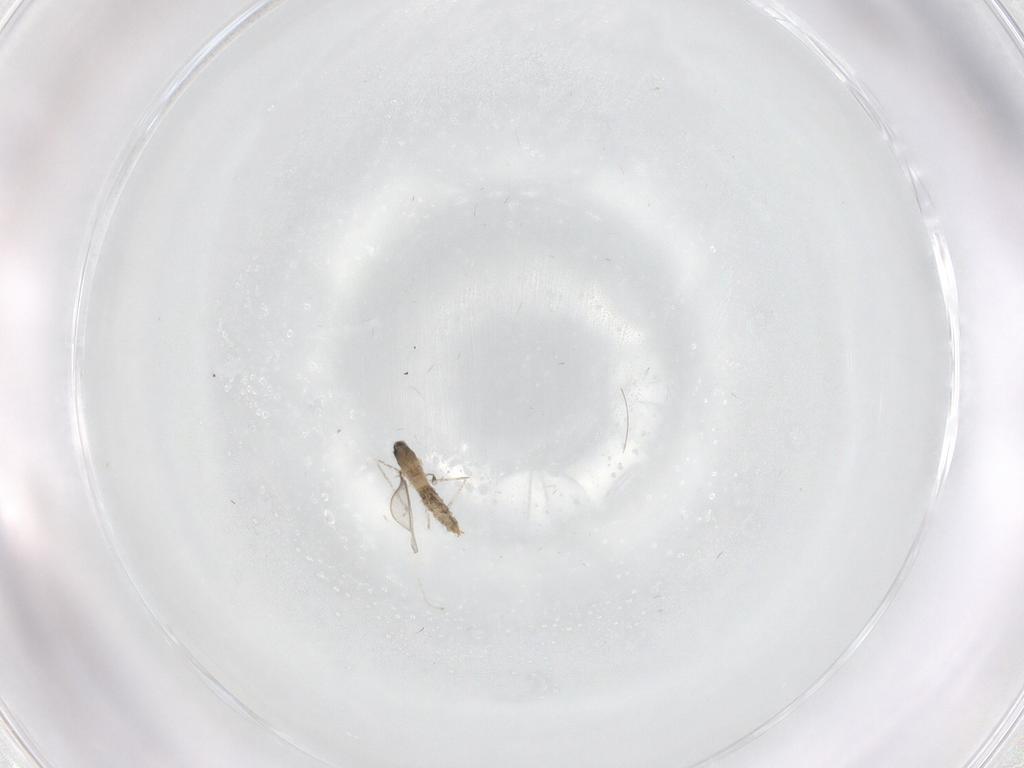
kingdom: Animalia
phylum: Arthropoda
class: Insecta
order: Diptera
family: Cecidomyiidae
